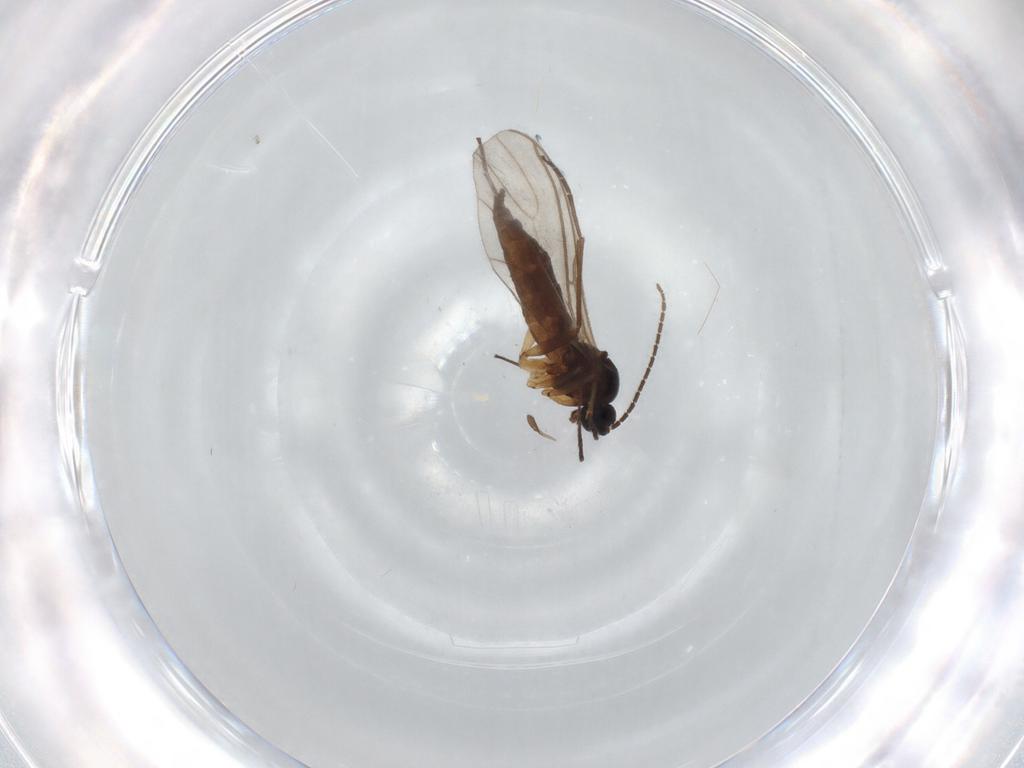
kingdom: Animalia
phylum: Arthropoda
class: Insecta
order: Diptera
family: Sciaridae
